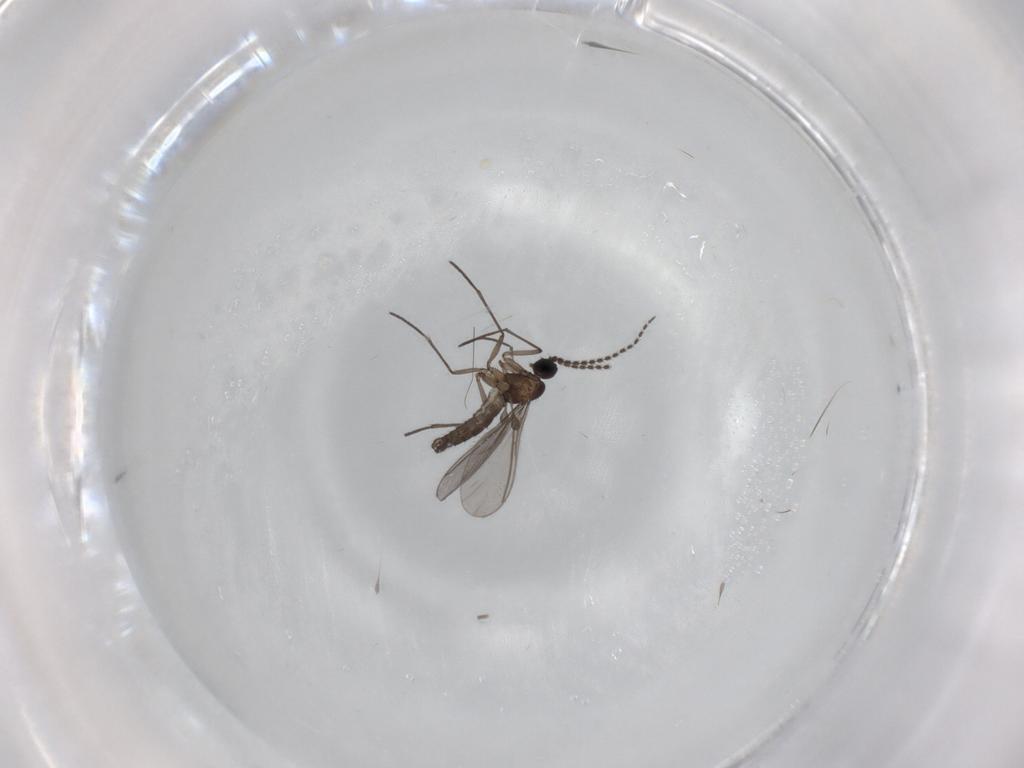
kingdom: Animalia
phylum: Arthropoda
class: Insecta
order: Diptera
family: Sciaridae
